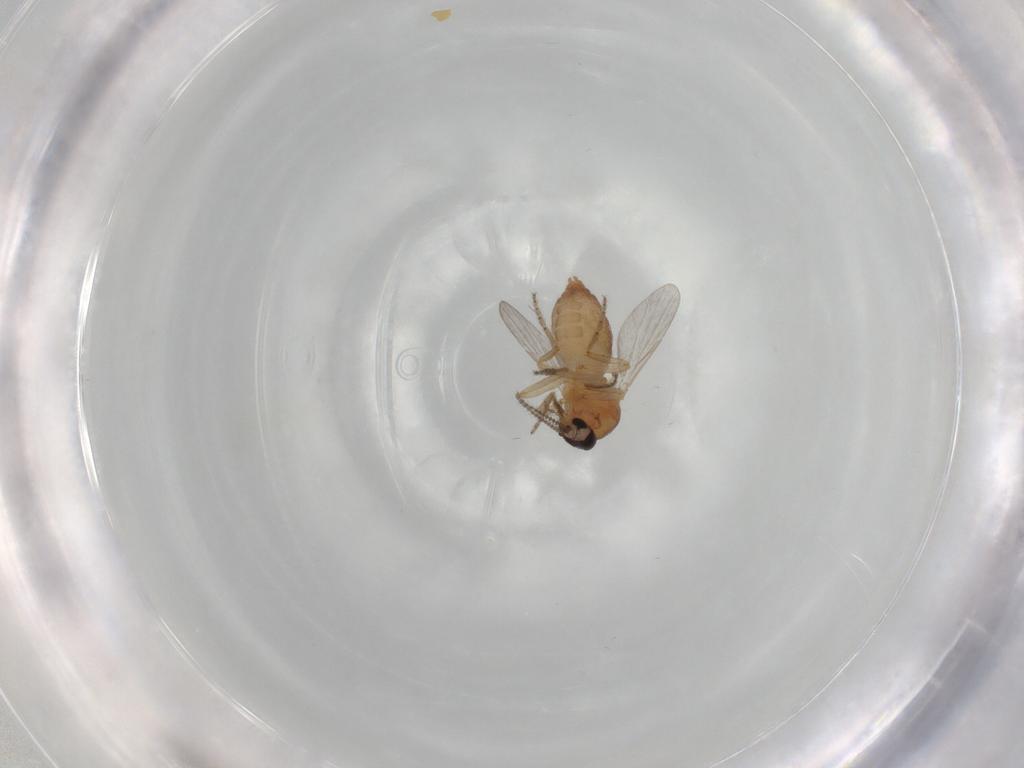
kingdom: Animalia
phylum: Arthropoda
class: Insecta
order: Diptera
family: Ceratopogonidae
